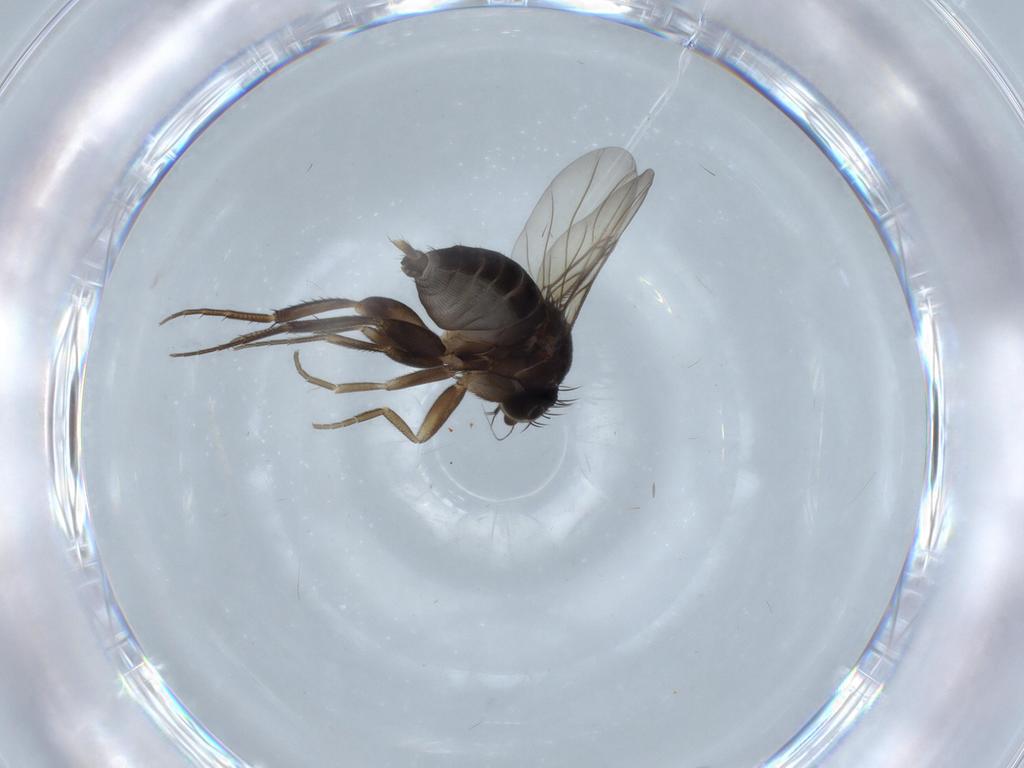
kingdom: Animalia
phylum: Arthropoda
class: Insecta
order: Diptera
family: Phoridae
